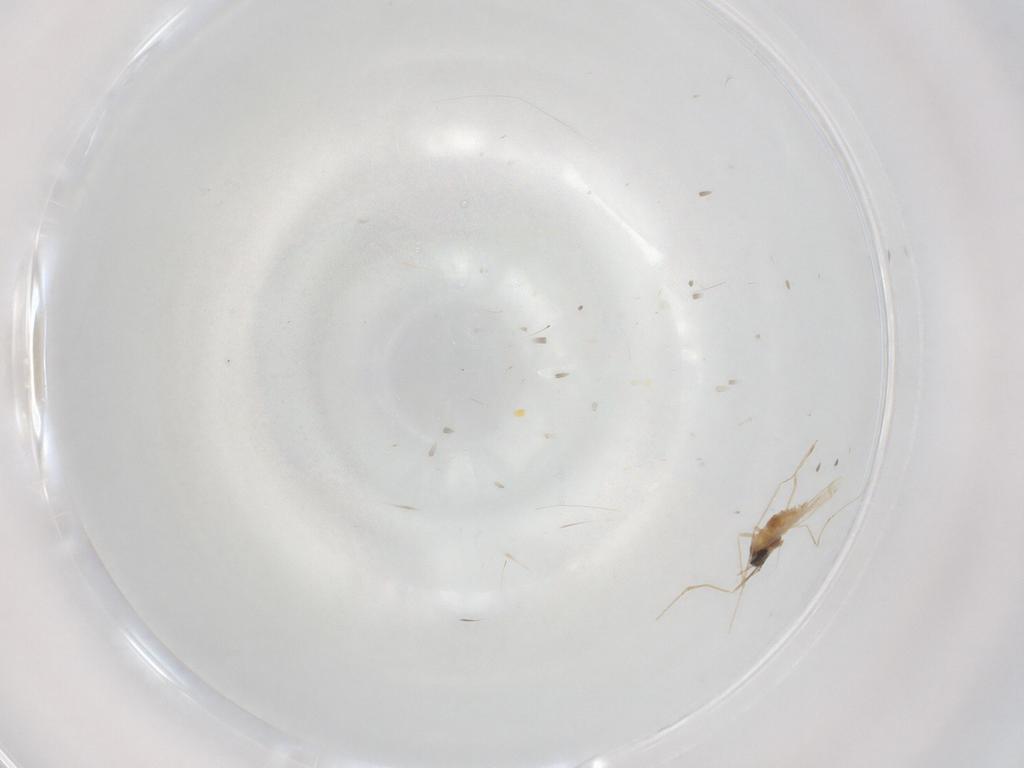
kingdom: Animalia
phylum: Arthropoda
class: Insecta
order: Diptera
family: Cecidomyiidae
